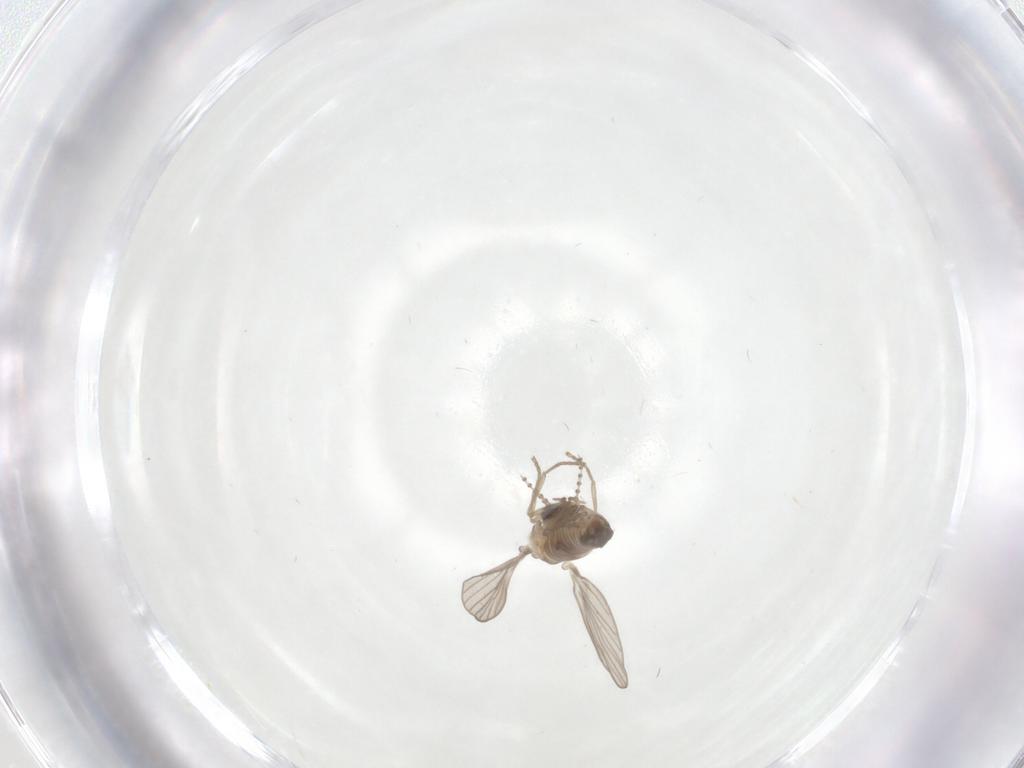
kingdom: Animalia
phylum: Arthropoda
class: Insecta
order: Diptera
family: Psychodidae
